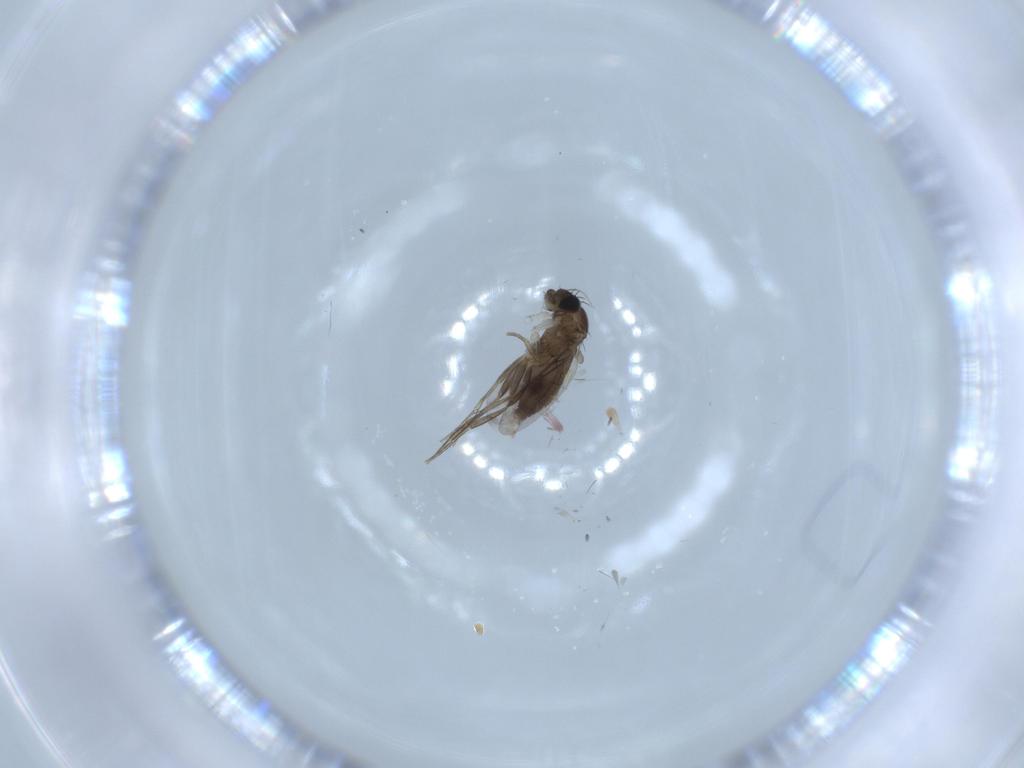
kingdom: Animalia
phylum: Arthropoda
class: Insecta
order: Diptera
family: Phoridae
